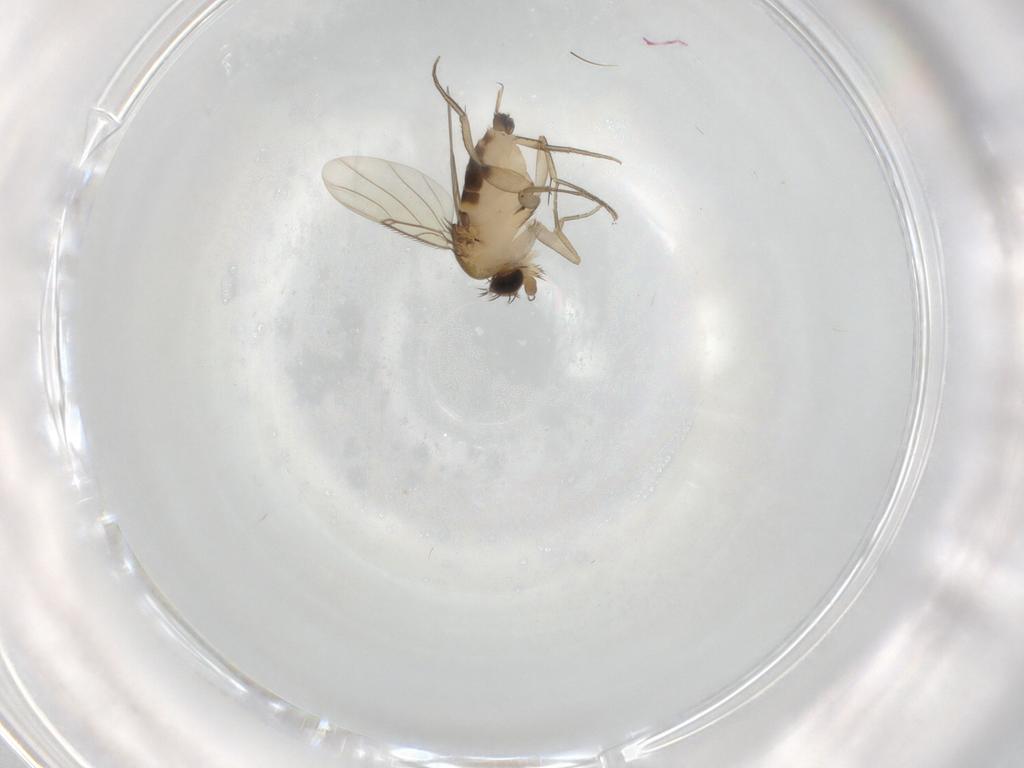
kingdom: Animalia
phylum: Arthropoda
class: Insecta
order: Diptera
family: Phoridae
